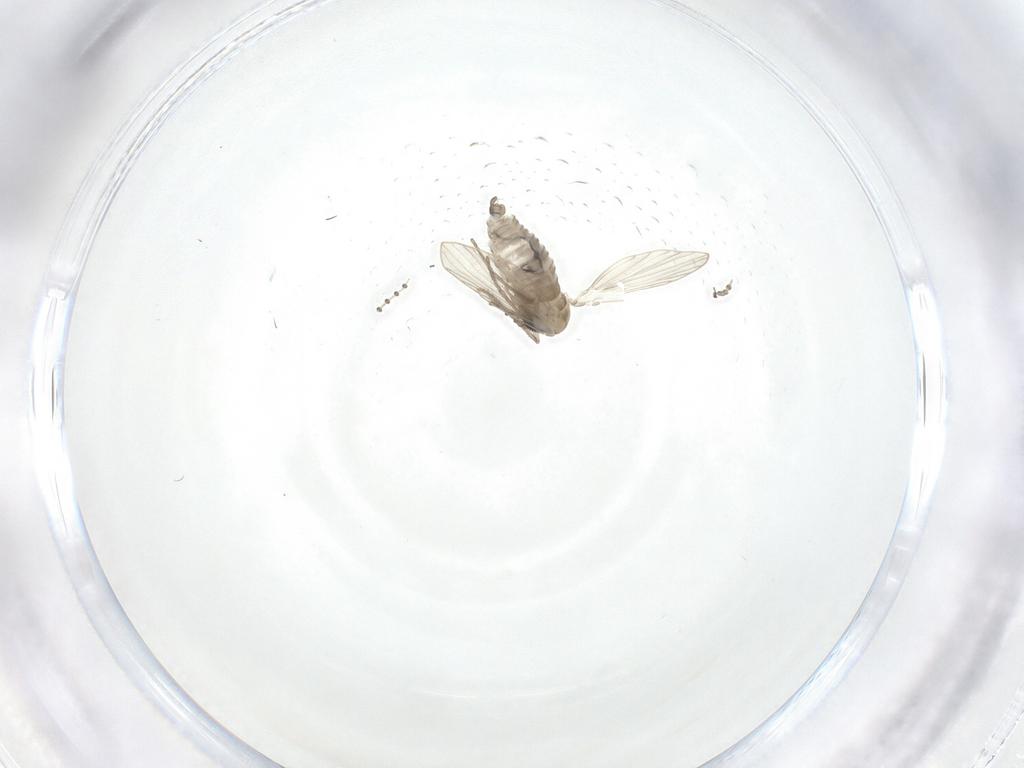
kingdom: Animalia
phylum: Arthropoda
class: Insecta
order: Diptera
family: Psychodidae
